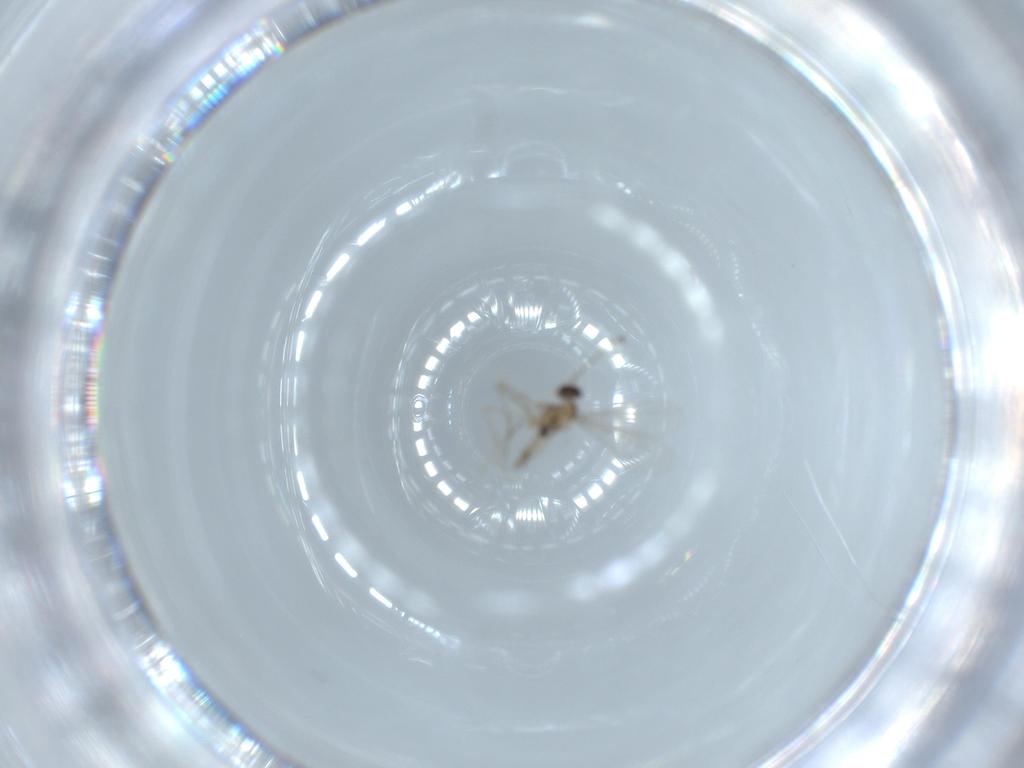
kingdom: Animalia
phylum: Arthropoda
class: Insecta
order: Diptera
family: Cecidomyiidae
